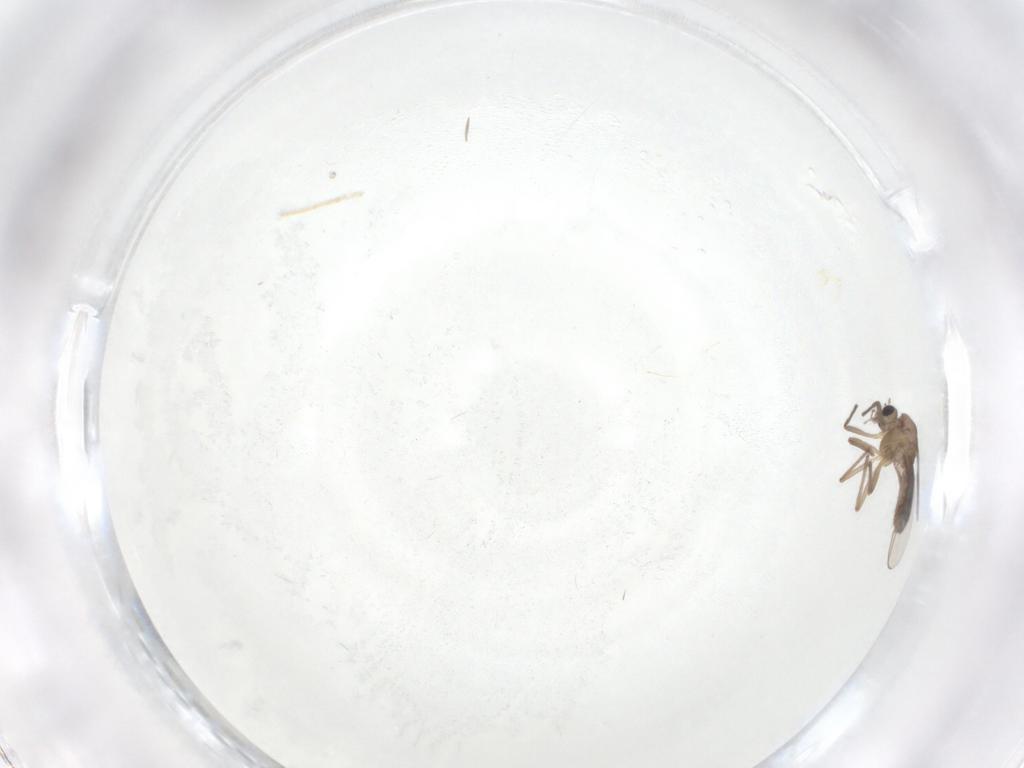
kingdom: Animalia
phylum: Arthropoda
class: Insecta
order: Diptera
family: Chironomidae
